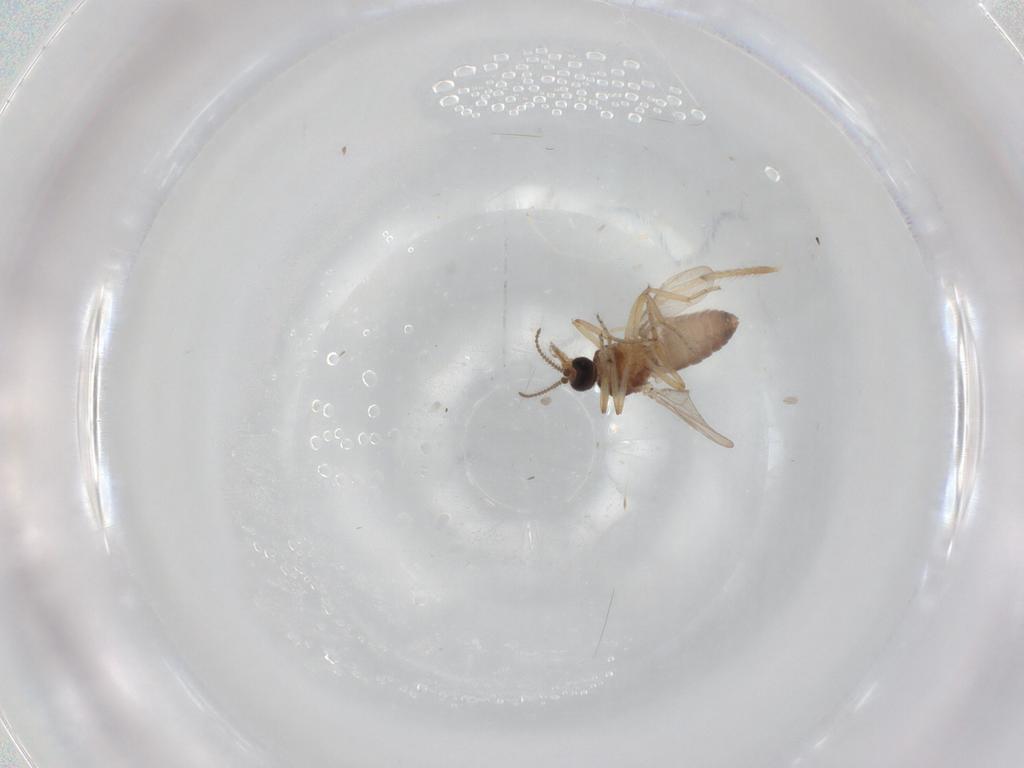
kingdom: Animalia
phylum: Arthropoda
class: Insecta
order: Diptera
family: Ceratopogonidae
